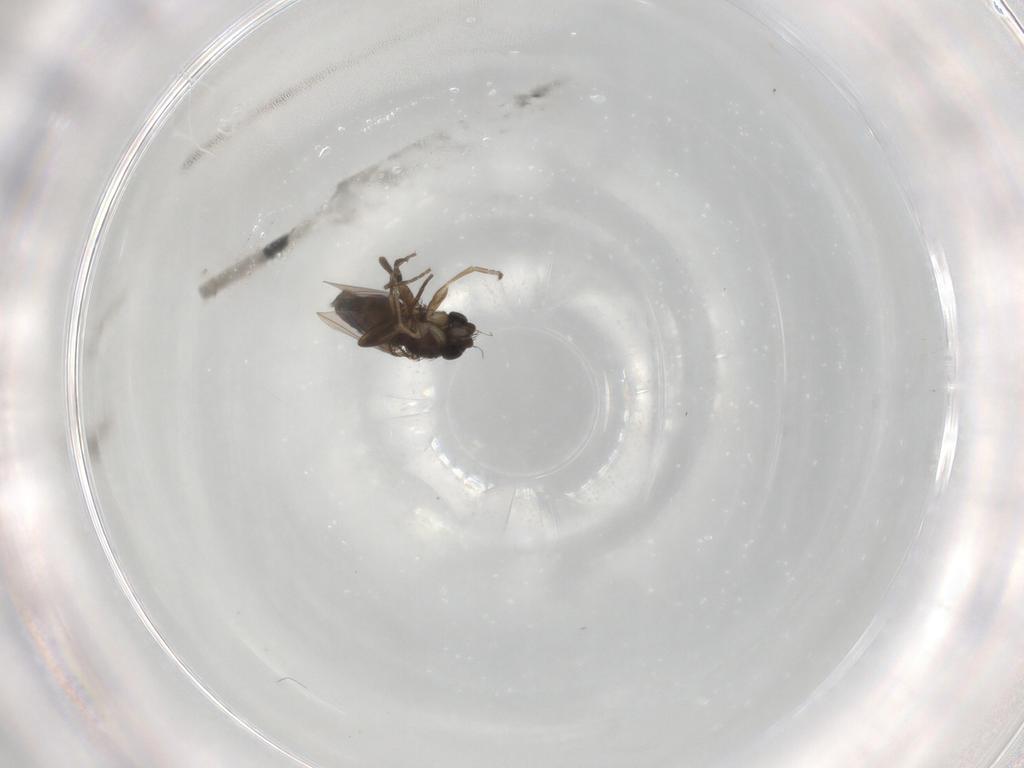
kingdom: Animalia
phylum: Arthropoda
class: Insecta
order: Diptera
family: Phoridae
